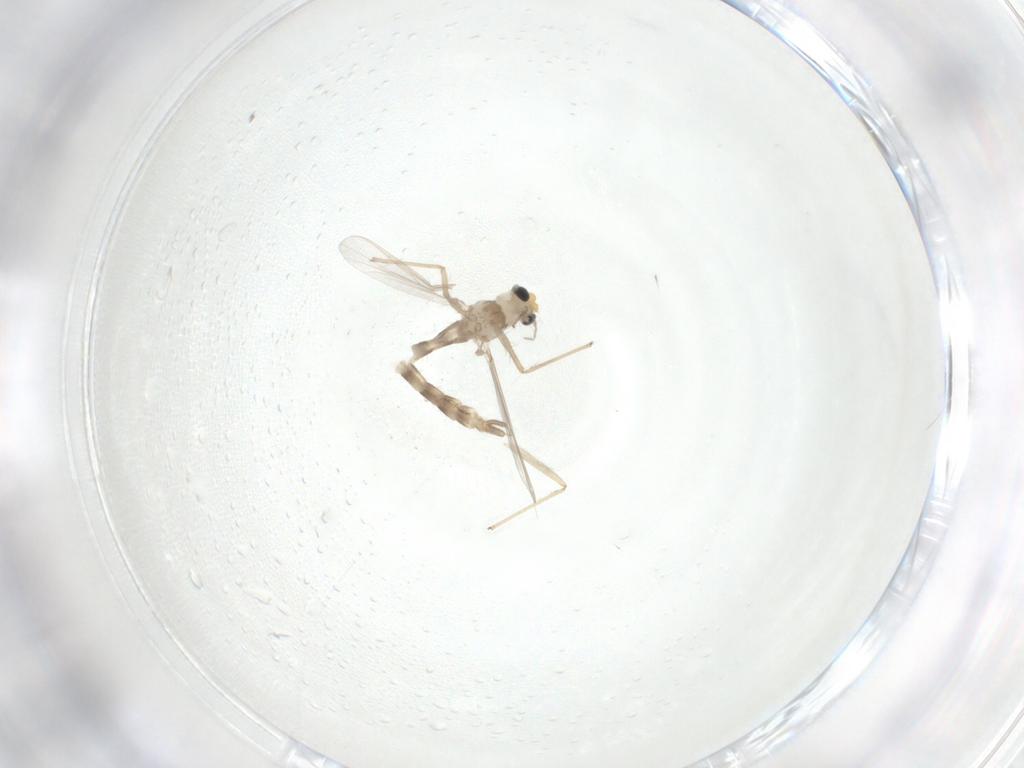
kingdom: Animalia
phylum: Arthropoda
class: Insecta
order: Diptera
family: Chironomidae
